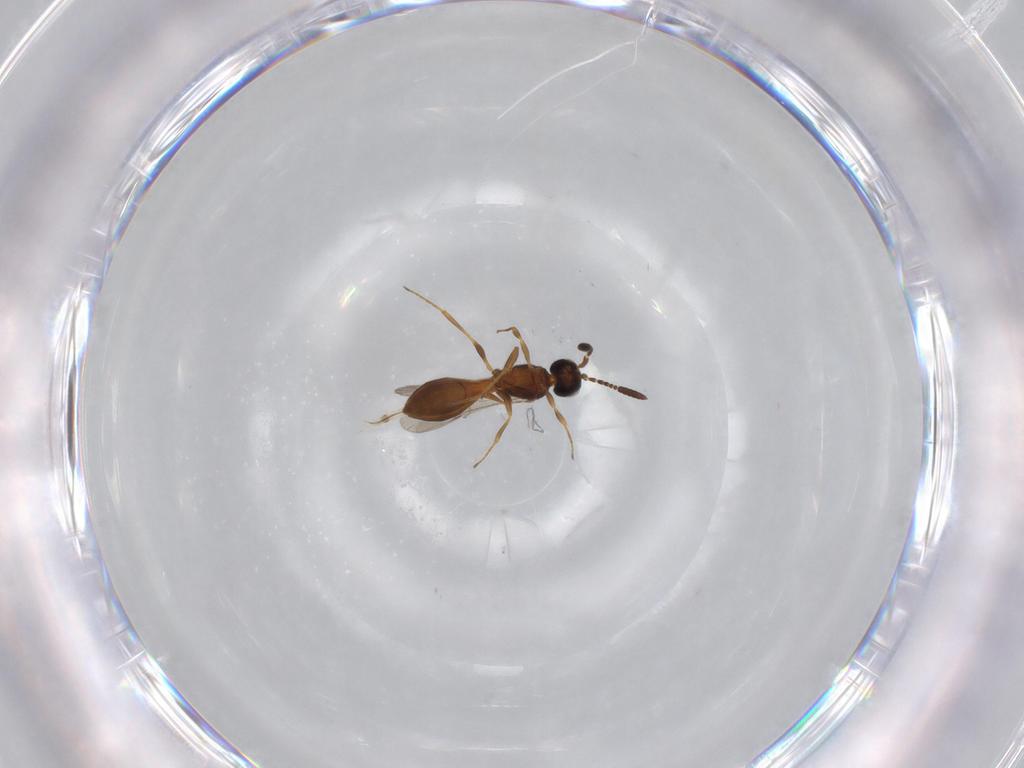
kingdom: Animalia
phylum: Arthropoda
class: Insecta
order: Hymenoptera
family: Scelionidae
